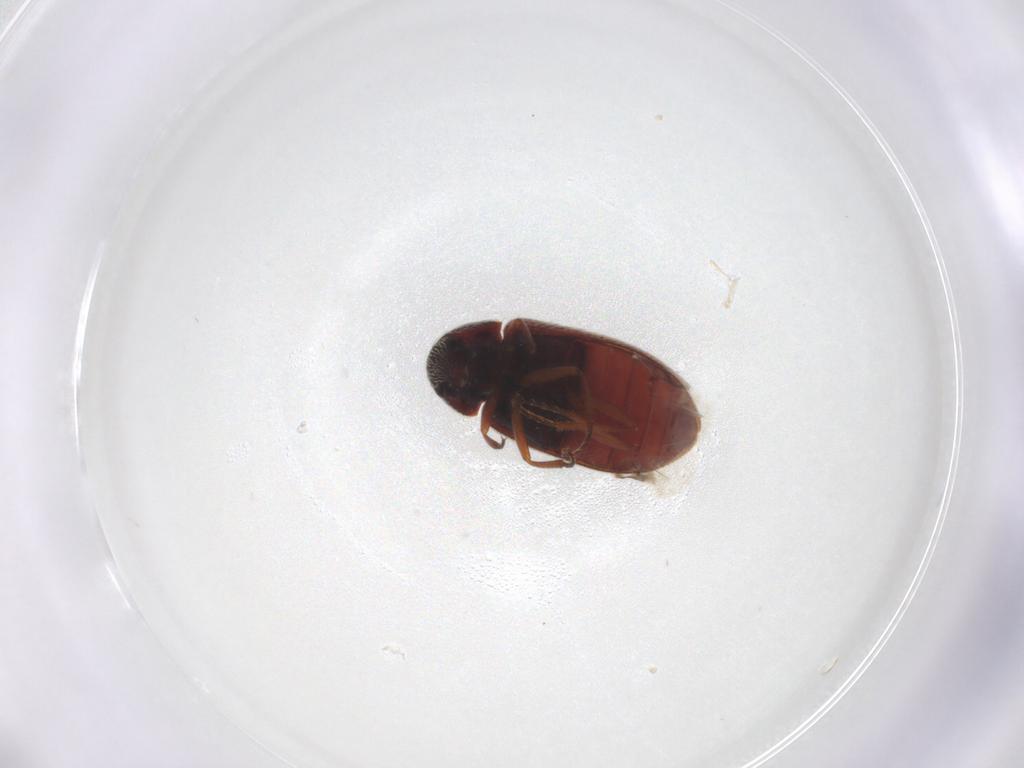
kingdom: Animalia
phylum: Arthropoda
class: Insecta
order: Coleoptera
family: Rhadalidae
